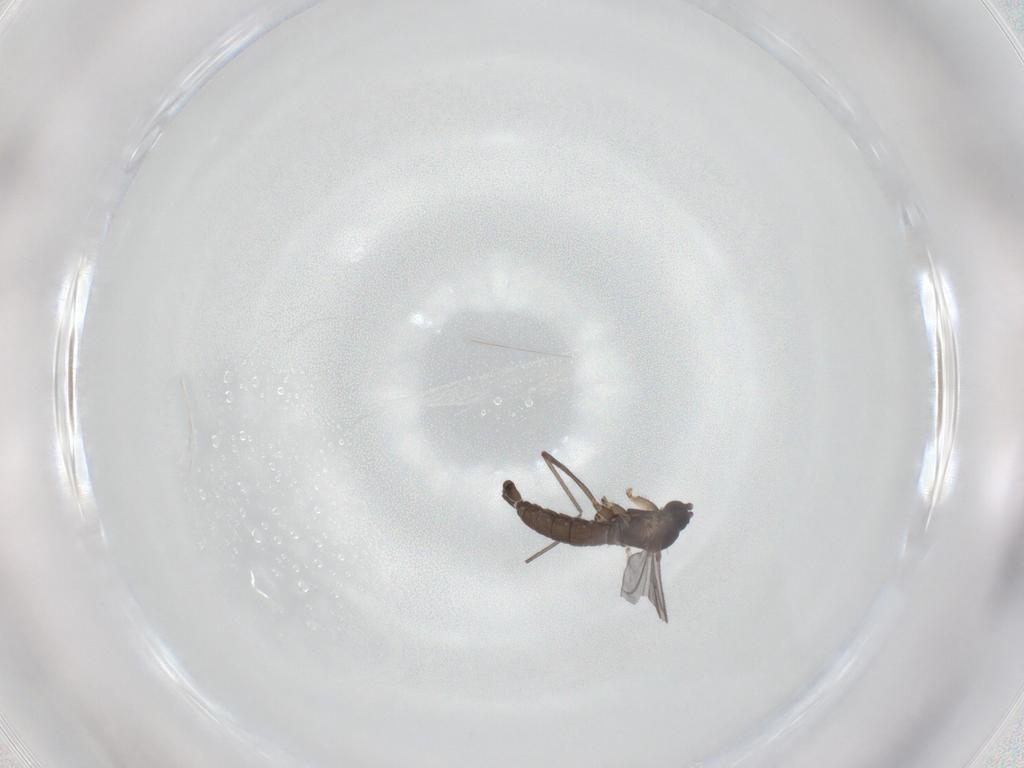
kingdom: Animalia
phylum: Arthropoda
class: Insecta
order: Diptera
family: Sciaridae
